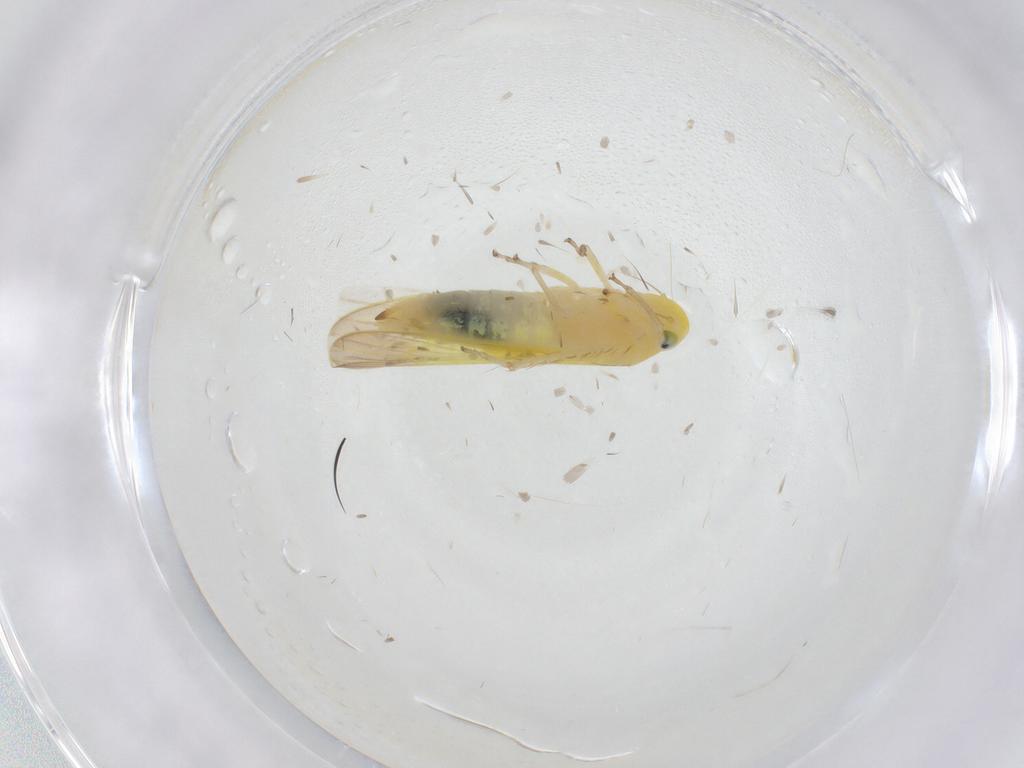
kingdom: Animalia
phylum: Arthropoda
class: Insecta
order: Hemiptera
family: Cicadellidae
